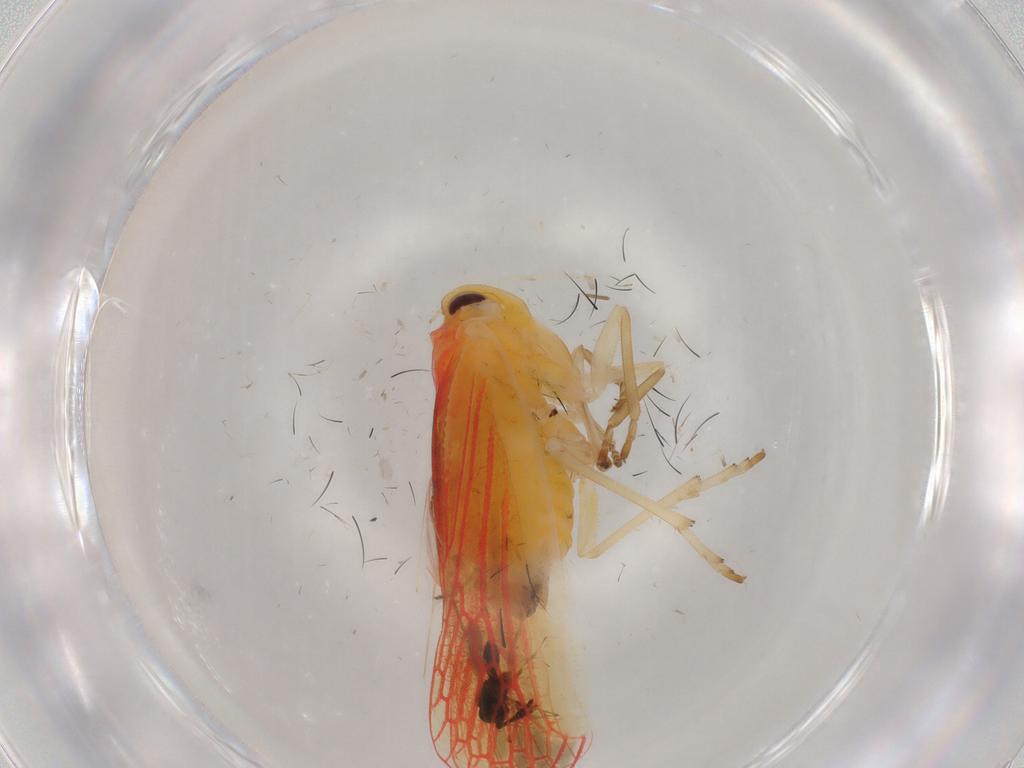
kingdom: Animalia
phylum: Arthropoda
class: Insecta
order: Hemiptera
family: Derbidae
